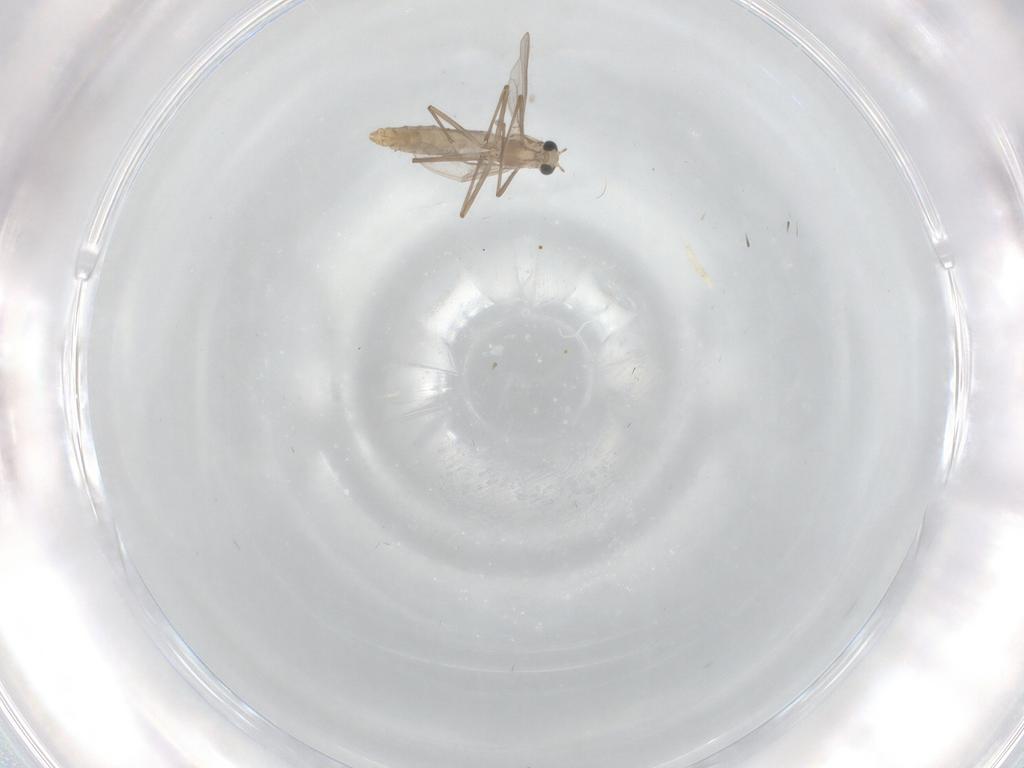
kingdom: Animalia
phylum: Arthropoda
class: Insecta
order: Diptera
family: Chironomidae
